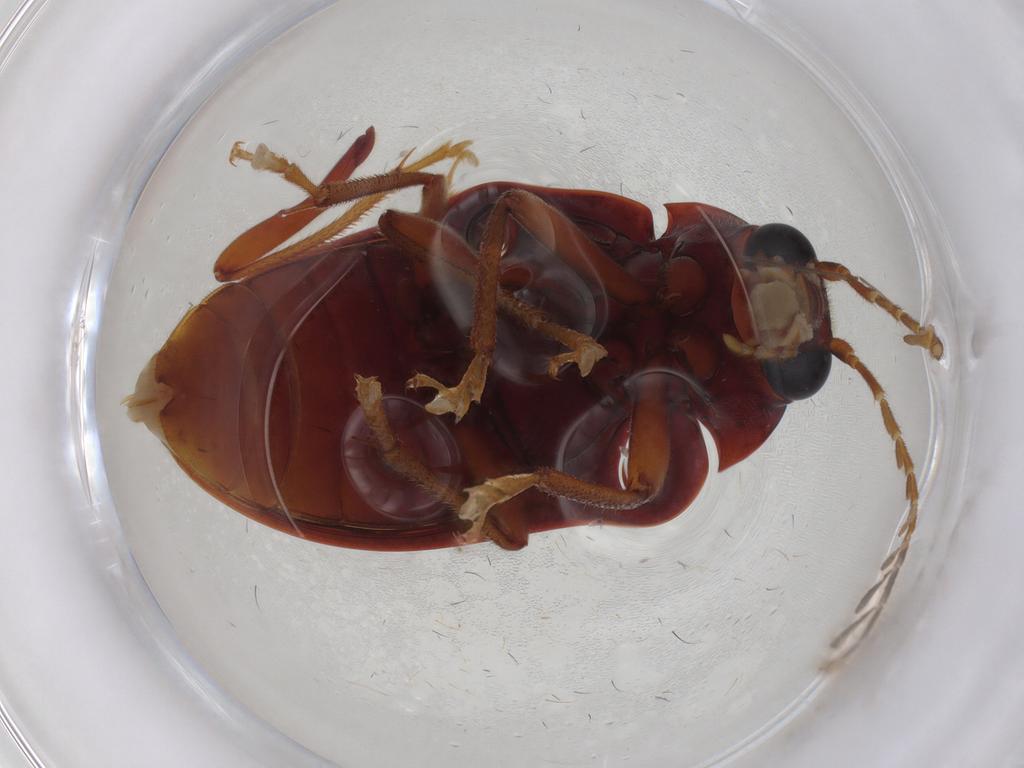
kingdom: Animalia
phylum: Arthropoda
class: Insecta
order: Coleoptera
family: Ptilodactylidae
